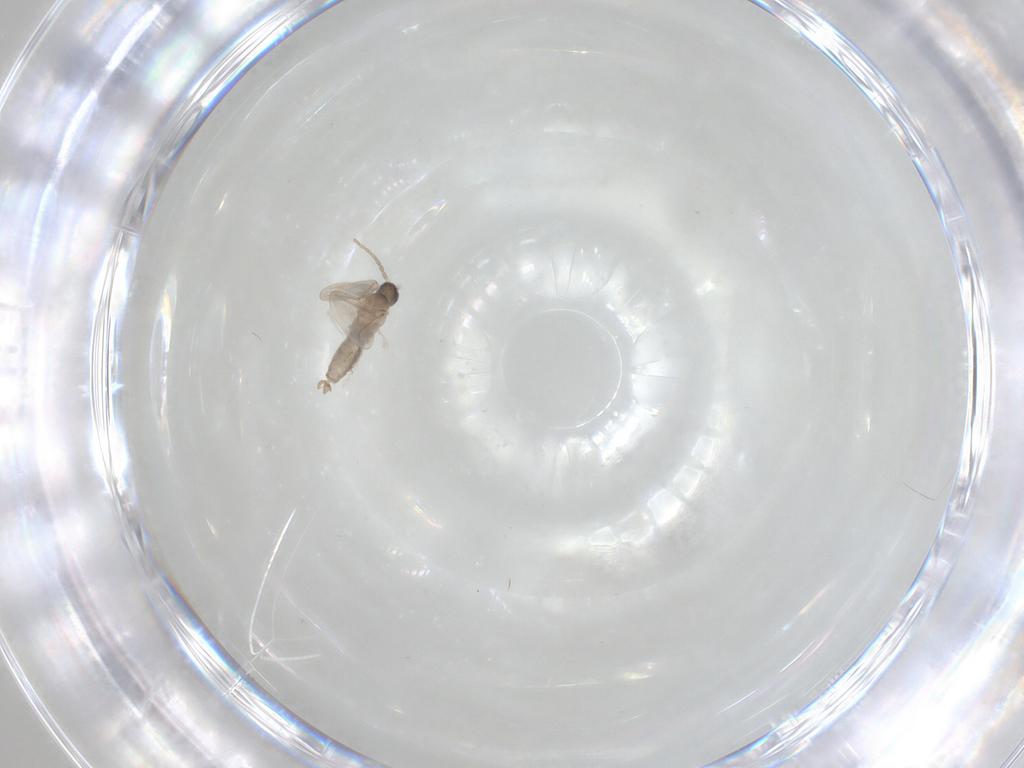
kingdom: Animalia
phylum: Arthropoda
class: Insecta
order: Diptera
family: Cecidomyiidae
